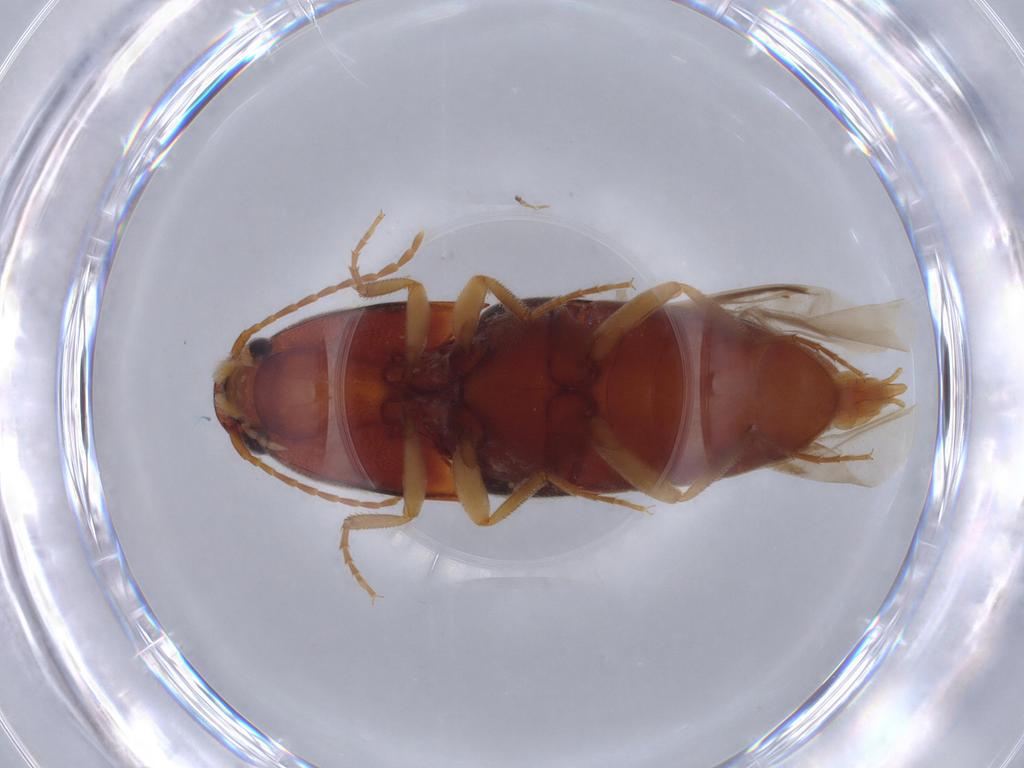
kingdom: Animalia
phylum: Arthropoda
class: Insecta
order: Coleoptera
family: Elateridae
